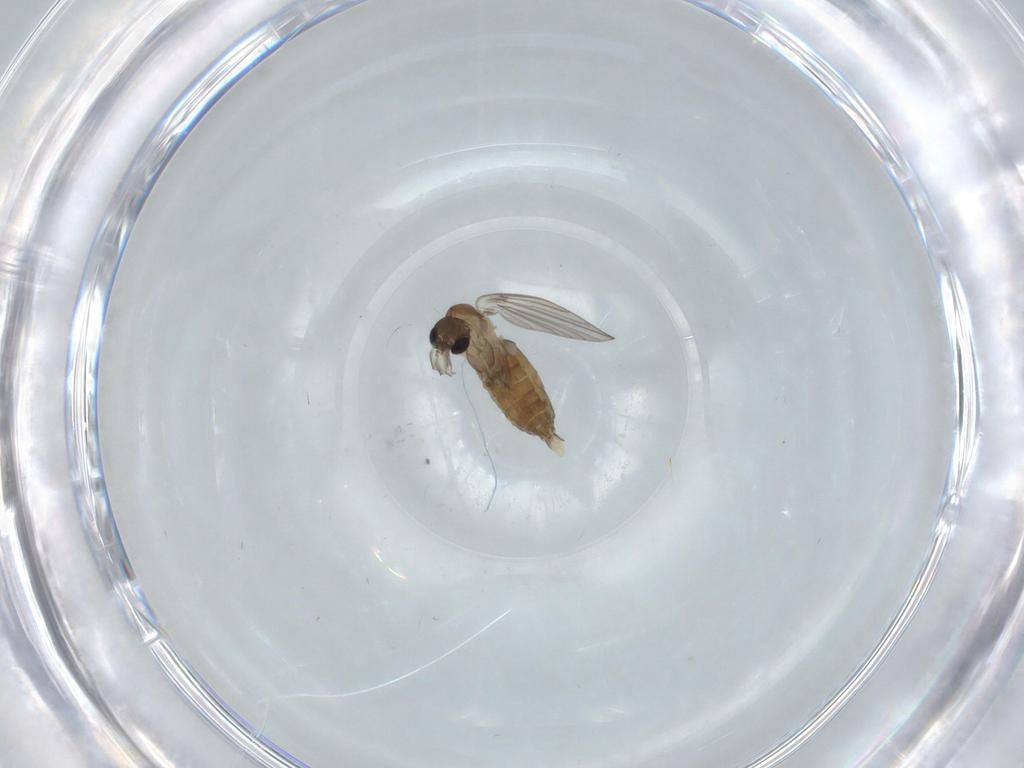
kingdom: Animalia
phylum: Arthropoda
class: Insecta
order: Diptera
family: Psychodidae
